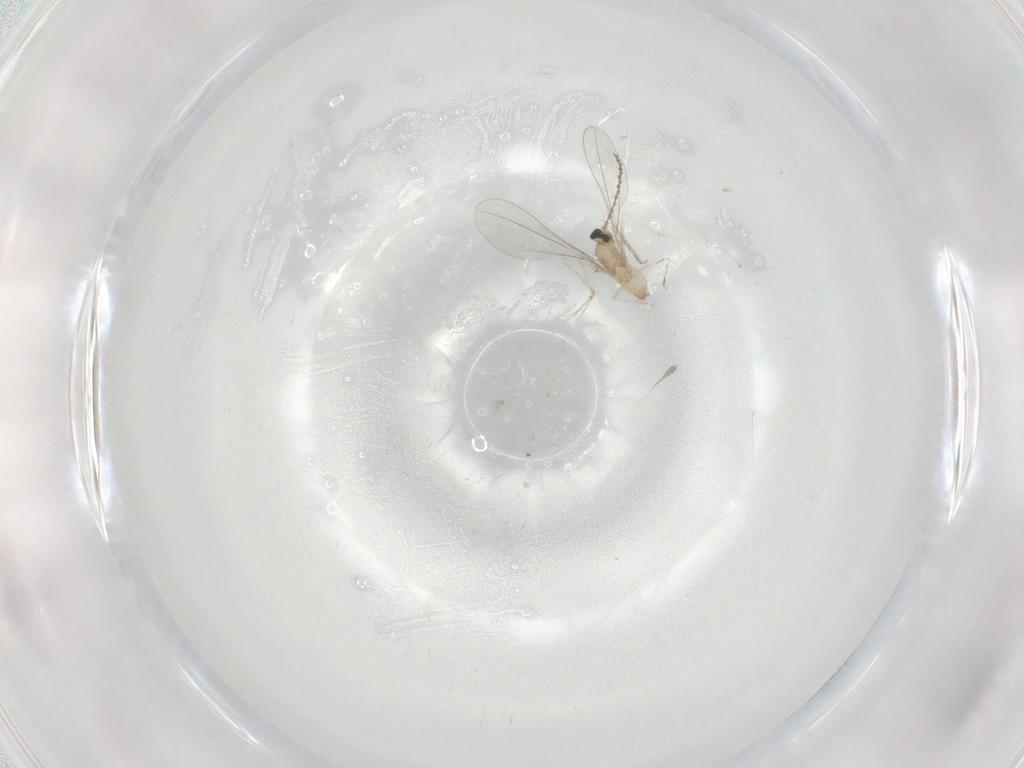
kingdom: Animalia
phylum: Arthropoda
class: Insecta
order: Diptera
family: Cecidomyiidae
